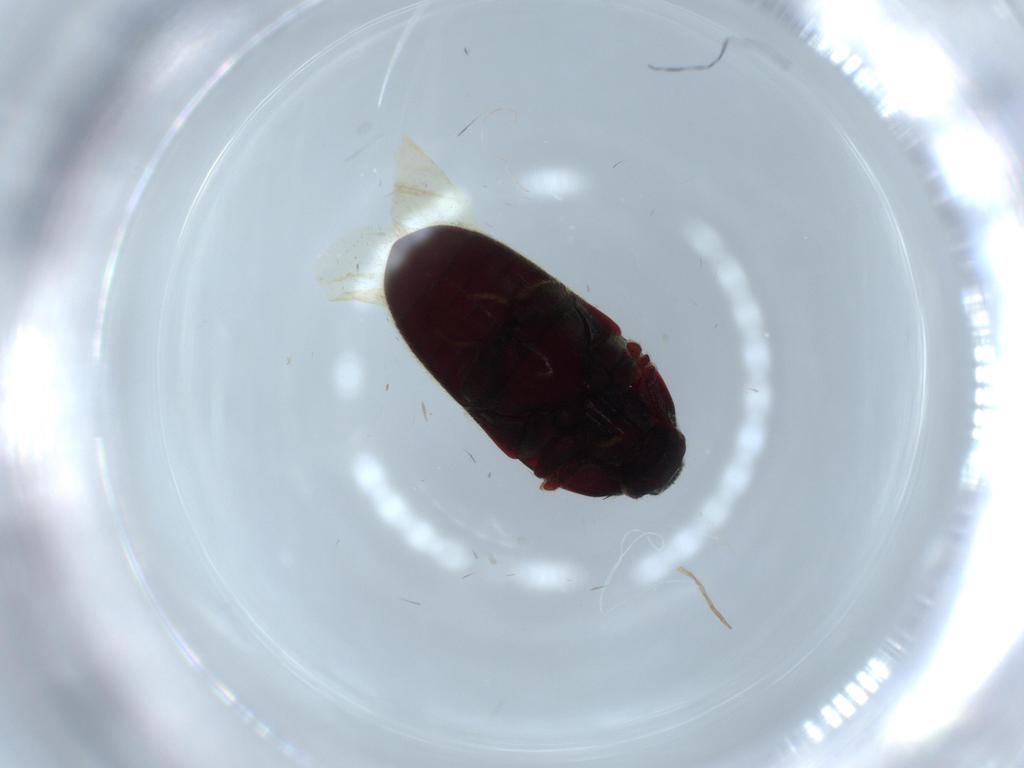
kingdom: Animalia
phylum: Arthropoda
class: Insecta
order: Coleoptera
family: Throscidae
